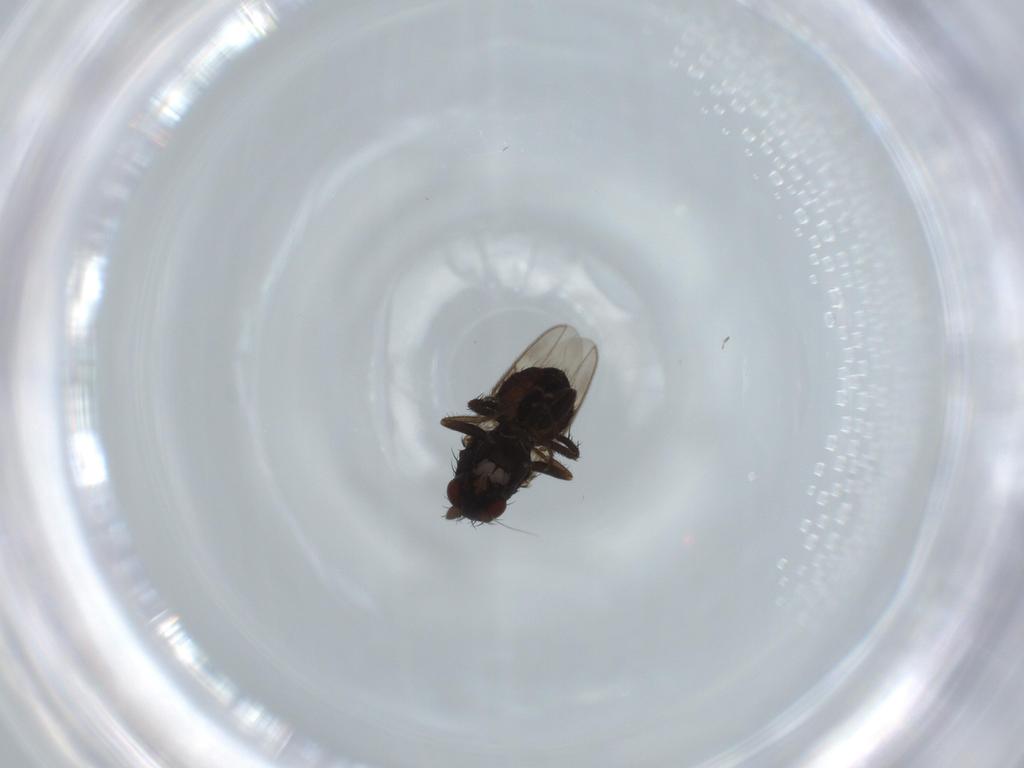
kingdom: Animalia
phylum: Arthropoda
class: Insecta
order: Diptera
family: Cecidomyiidae
